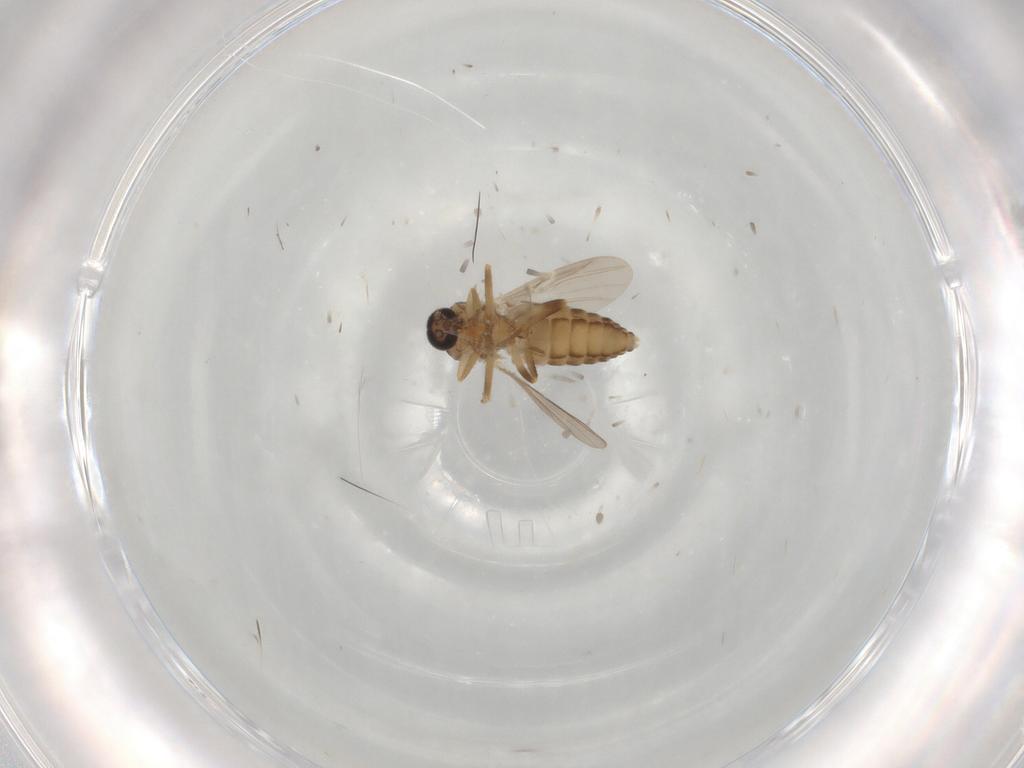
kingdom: Animalia
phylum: Arthropoda
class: Insecta
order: Diptera
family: Ceratopogonidae
